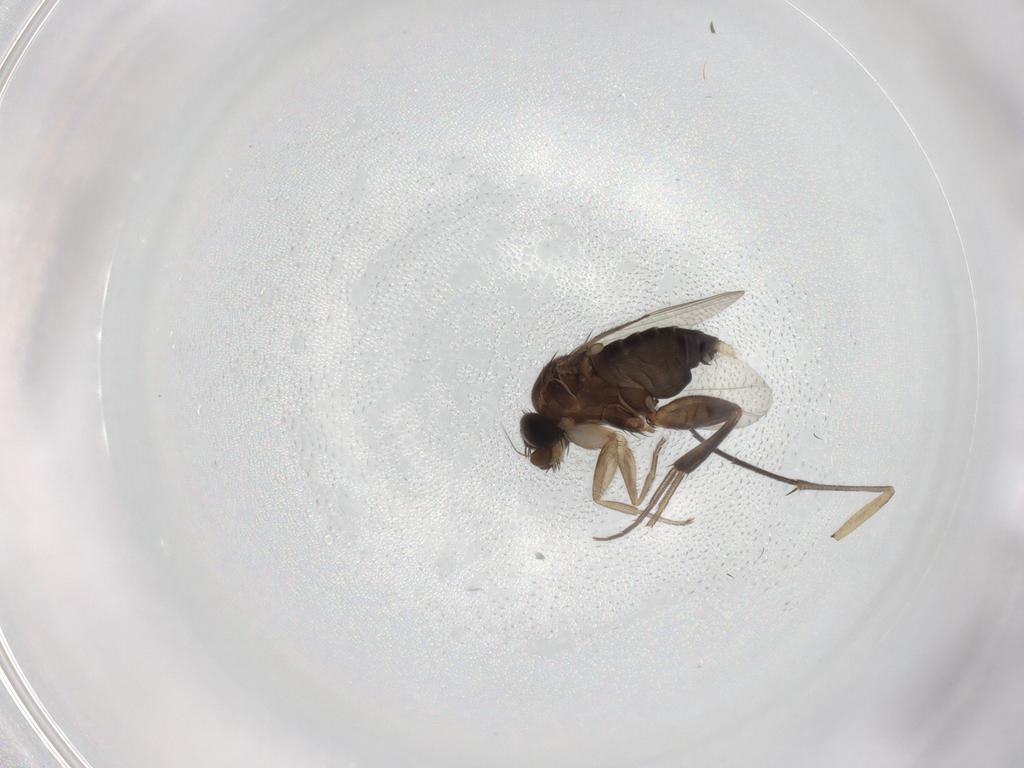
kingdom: Animalia
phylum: Arthropoda
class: Insecta
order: Diptera
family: Phoridae
